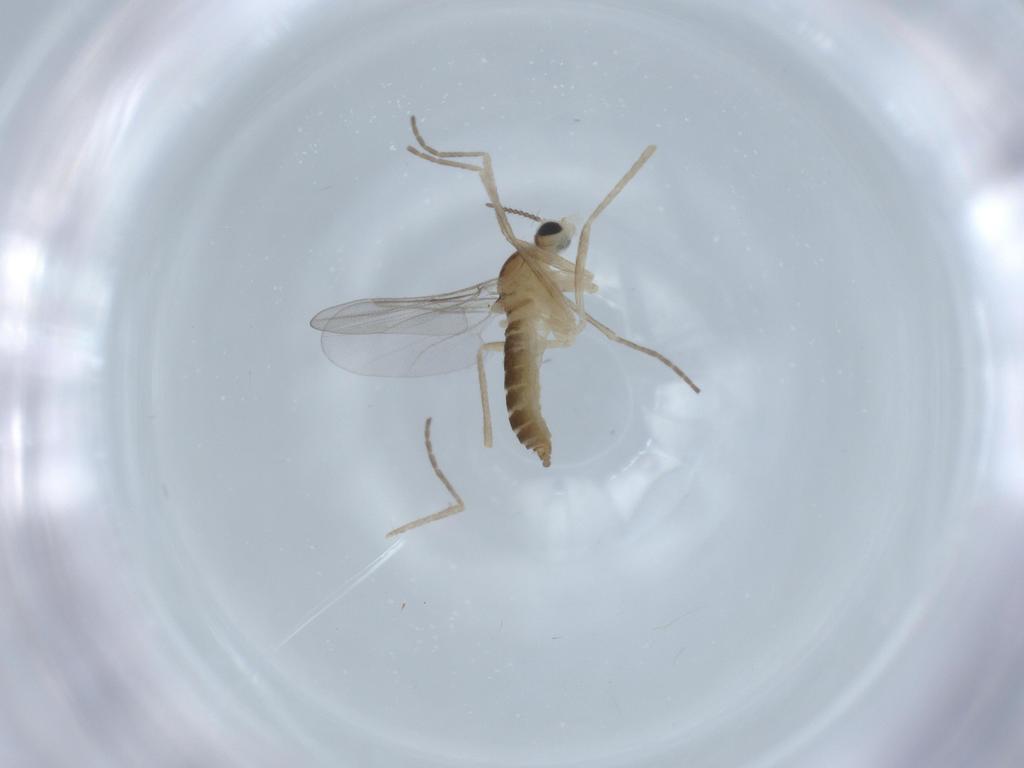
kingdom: Animalia
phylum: Arthropoda
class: Insecta
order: Diptera
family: Cecidomyiidae
